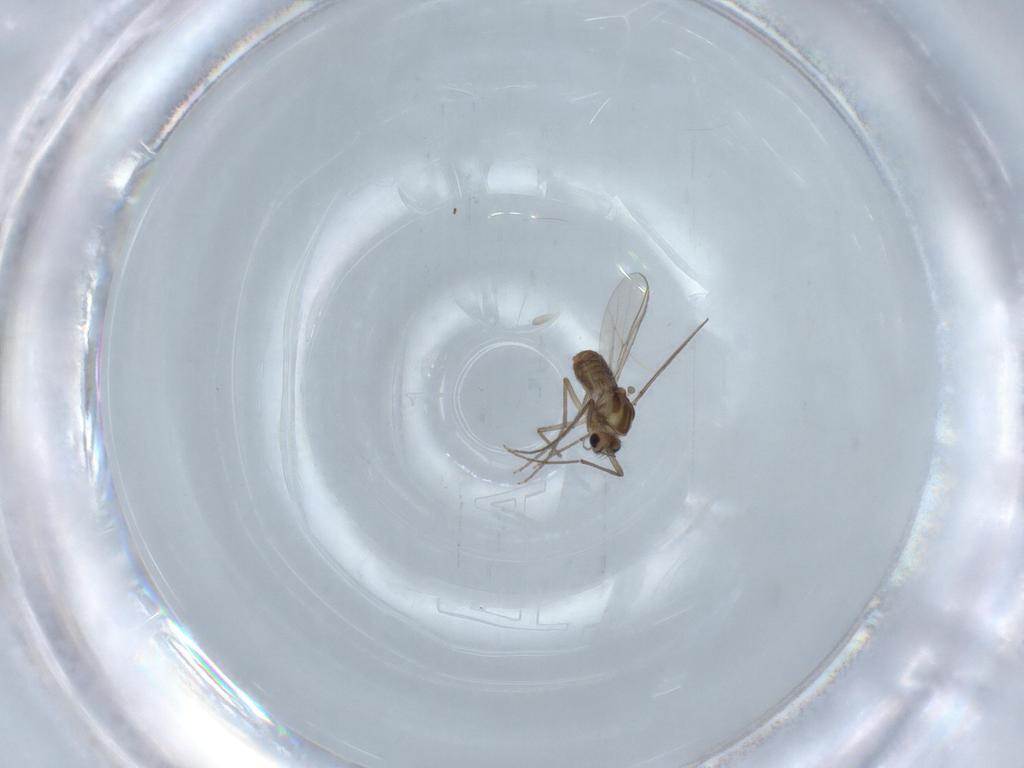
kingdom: Animalia
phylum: Arthropoda
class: Insecta
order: Diptera
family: Chironomidae
